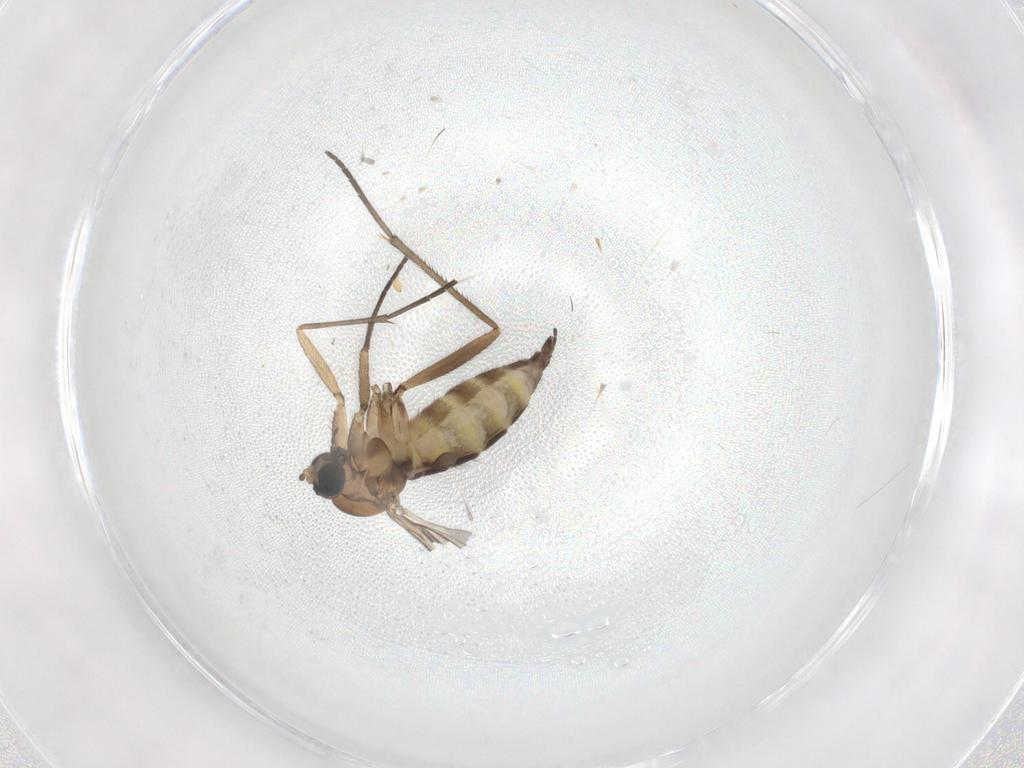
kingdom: Animalia
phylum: Arthropoda
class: Insecta
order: Diptera
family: Sciaridae
